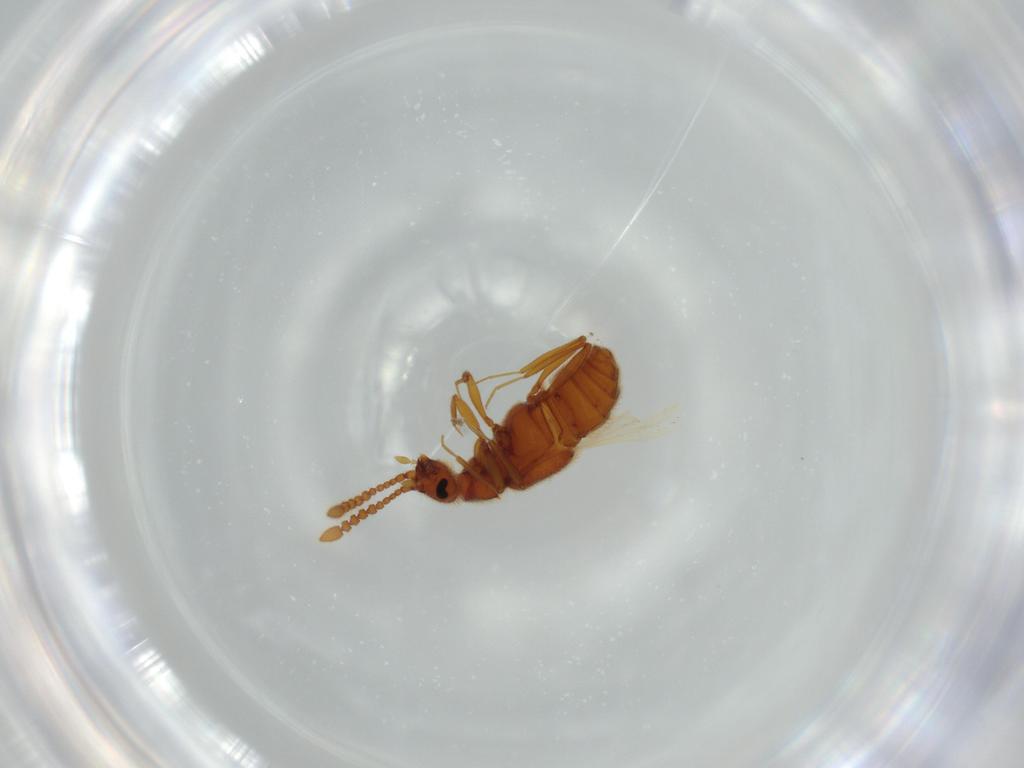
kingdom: Animalia
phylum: Arthropoda
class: Insecta
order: Coleoptera
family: Staphylinidae
